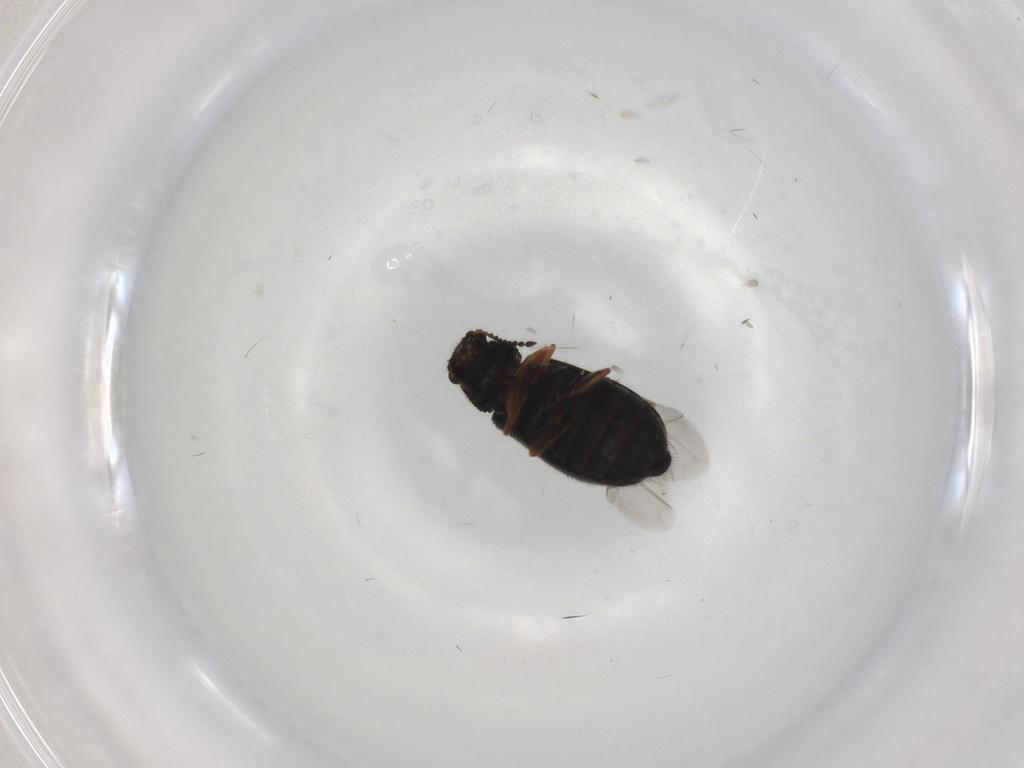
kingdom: Animalia
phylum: Arthropoda
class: Insecta
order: Coleoptera
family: Melyridae
